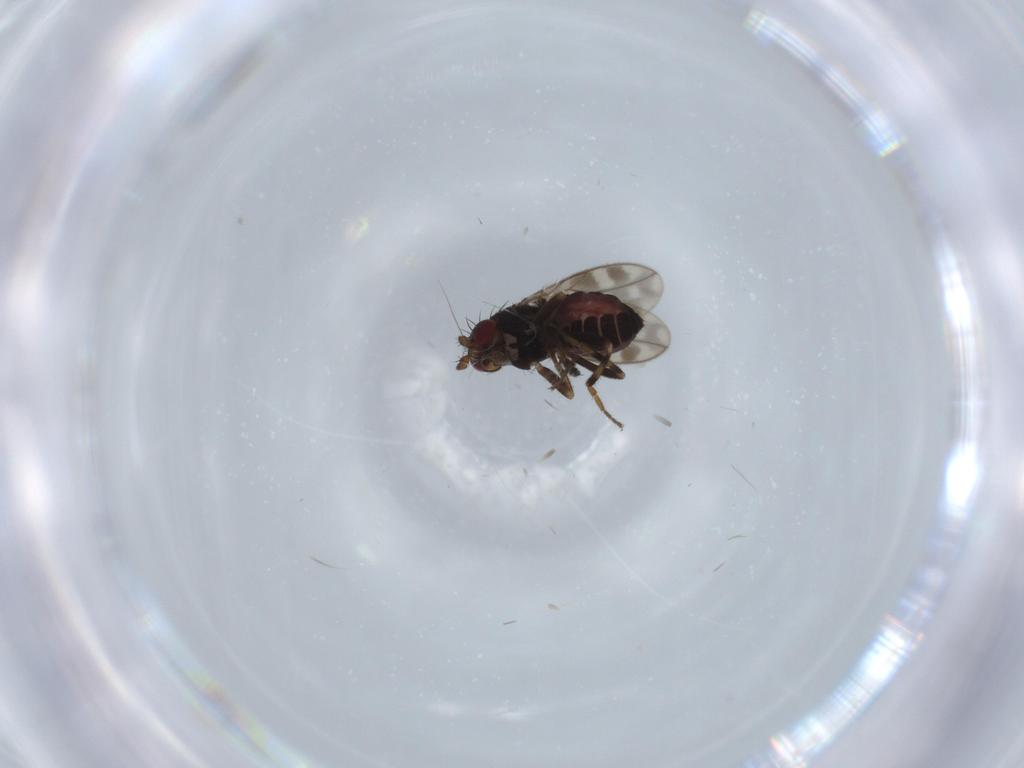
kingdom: Animalia
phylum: Arthropoda
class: Insecta
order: Diptera
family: Sphaeroceridae
